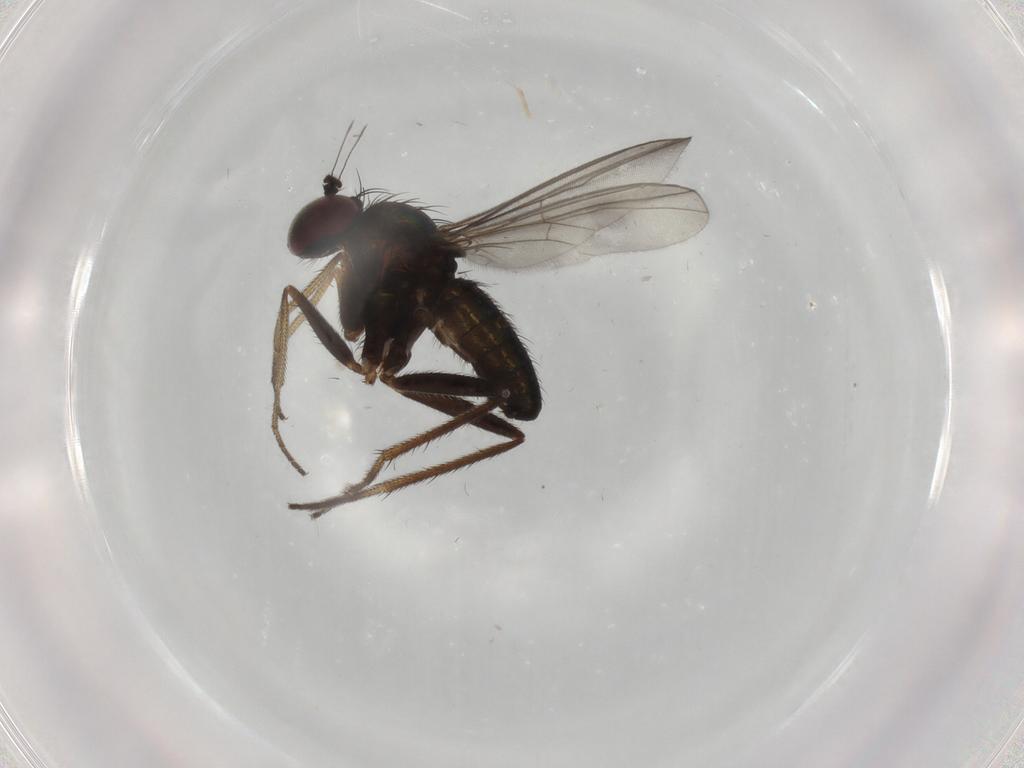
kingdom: Animalia
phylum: Arthropoda
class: Insecta
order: Diptera
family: Dolichopodidae
